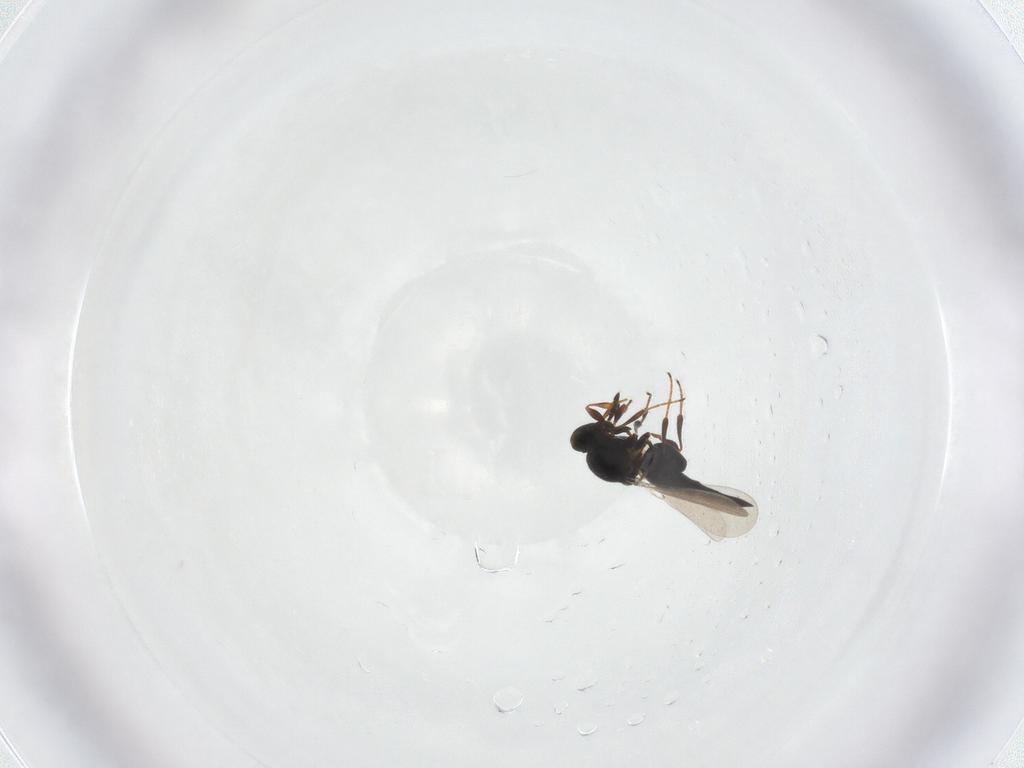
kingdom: Animalia
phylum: Arthropoda
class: Insecta
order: Hymenoptera
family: Platygastridae
